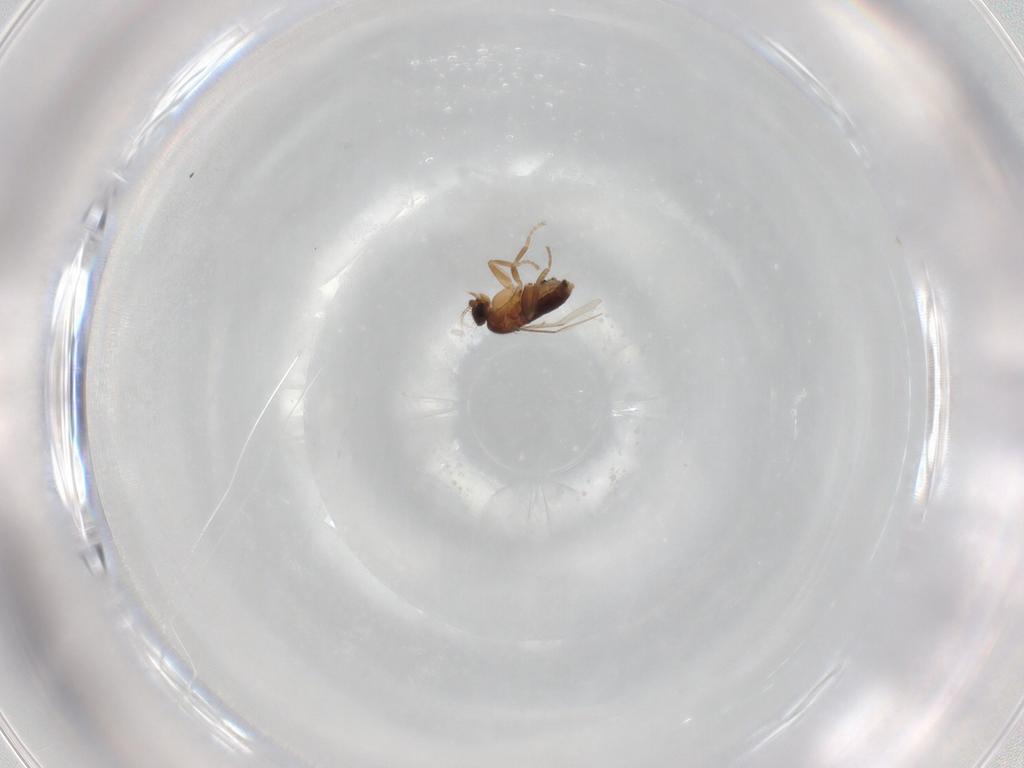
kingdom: Animalia
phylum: Arthropoda
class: Insecta
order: Diptera
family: Phoridae
